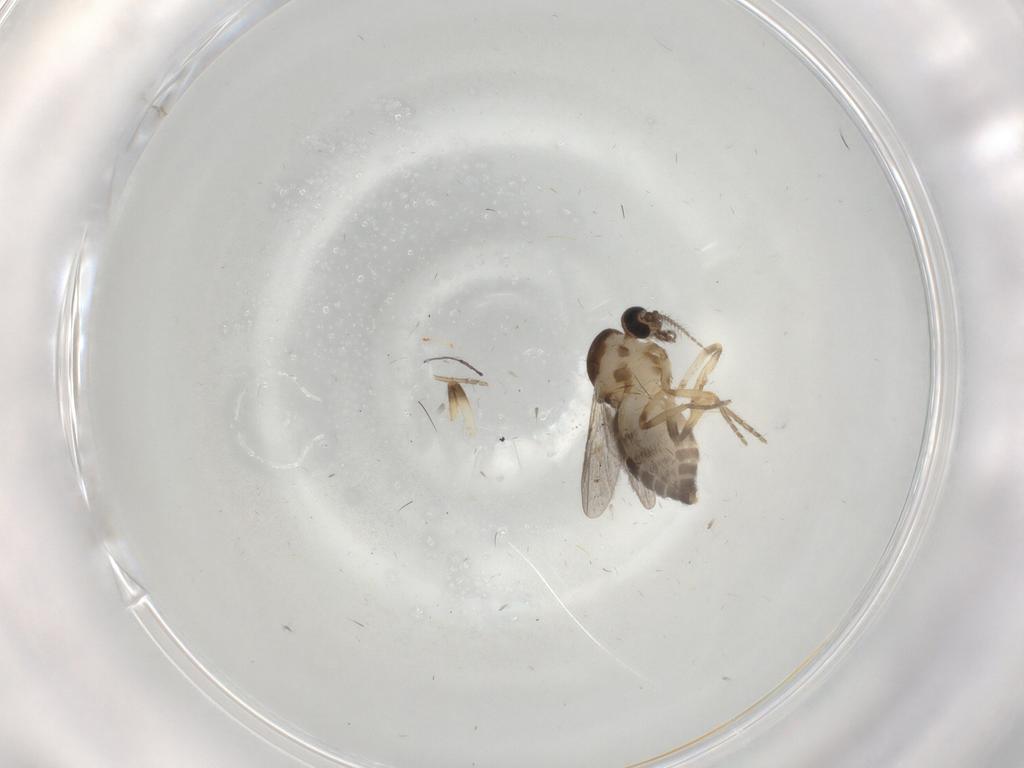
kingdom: Animalia
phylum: Arthropoda
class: Insecta
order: Diptera
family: Ceratopogonidae
